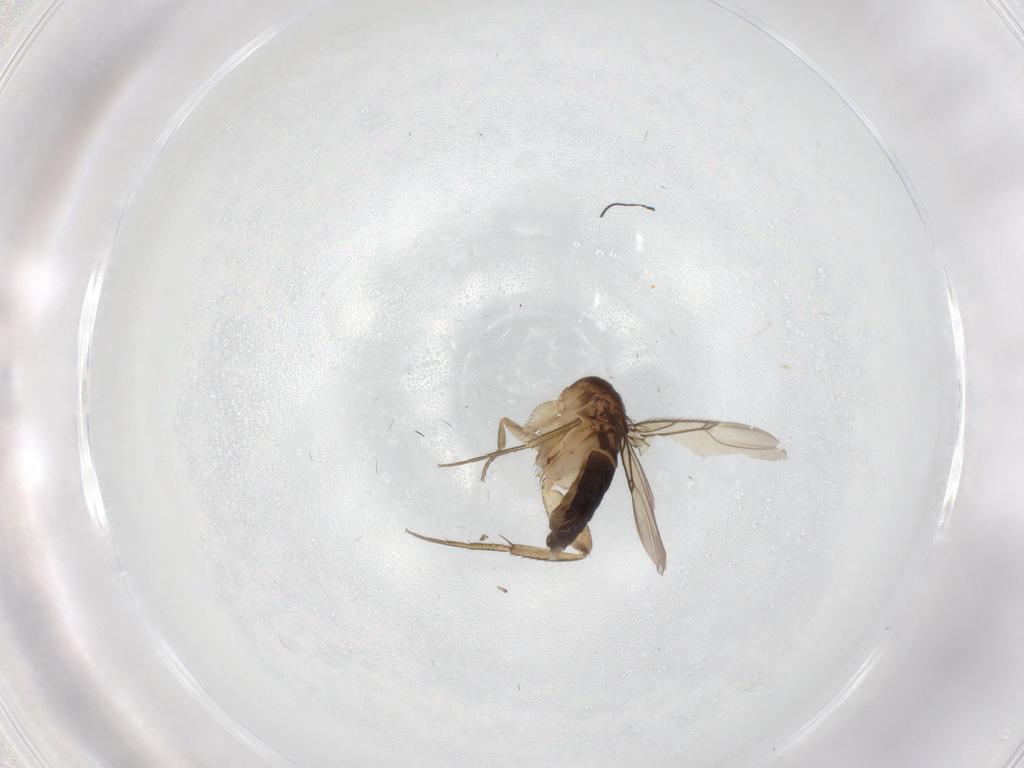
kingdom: Animalia
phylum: Arthropoda
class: Insecta
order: Diptera
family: Phoridae
